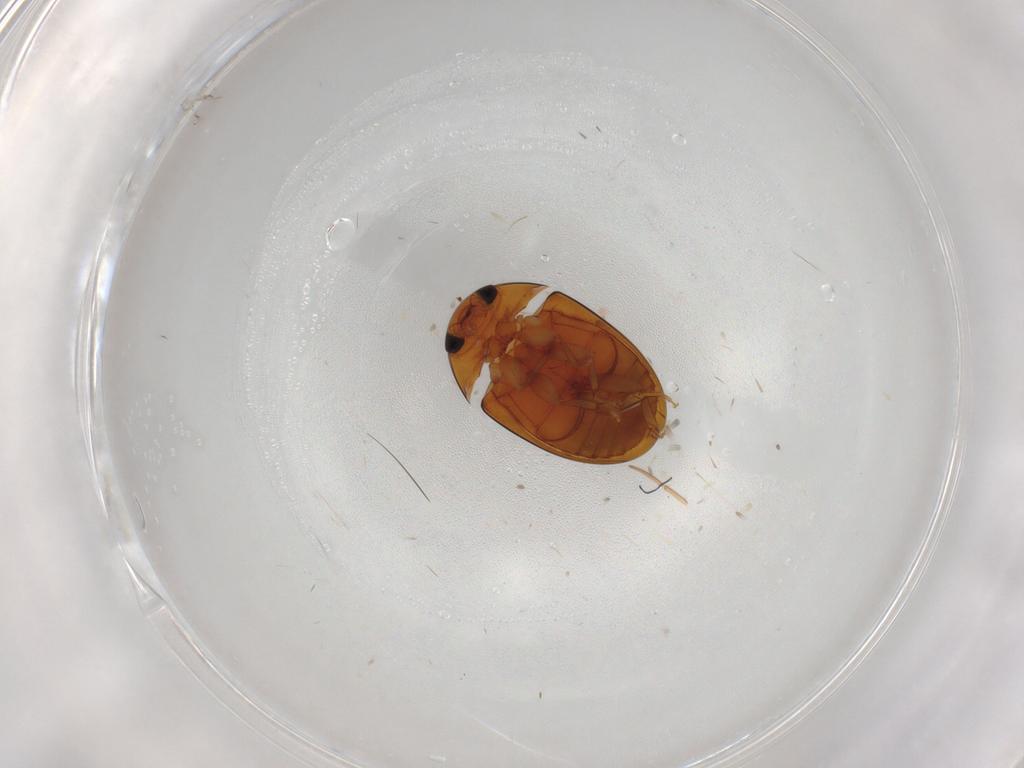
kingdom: Animalia
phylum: Arthropoda
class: Insecta
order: Coleoptera
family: Phalacridae
